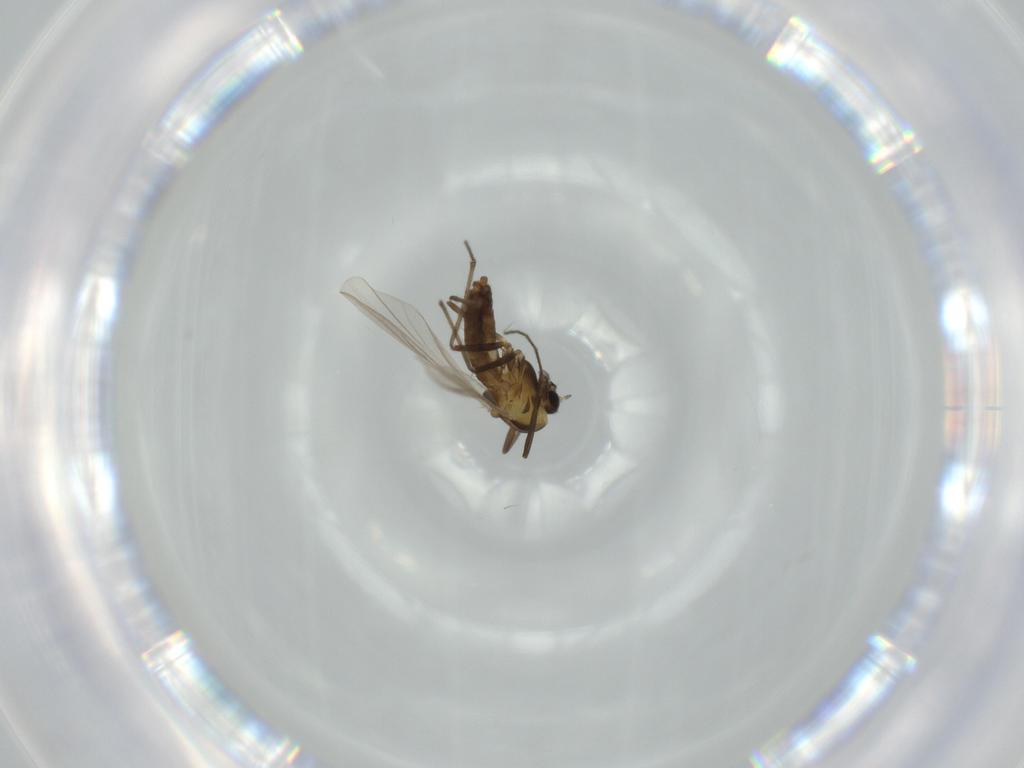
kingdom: Animalia
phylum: Arthropoda
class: Insecta
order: Diptera
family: Chironomidae
